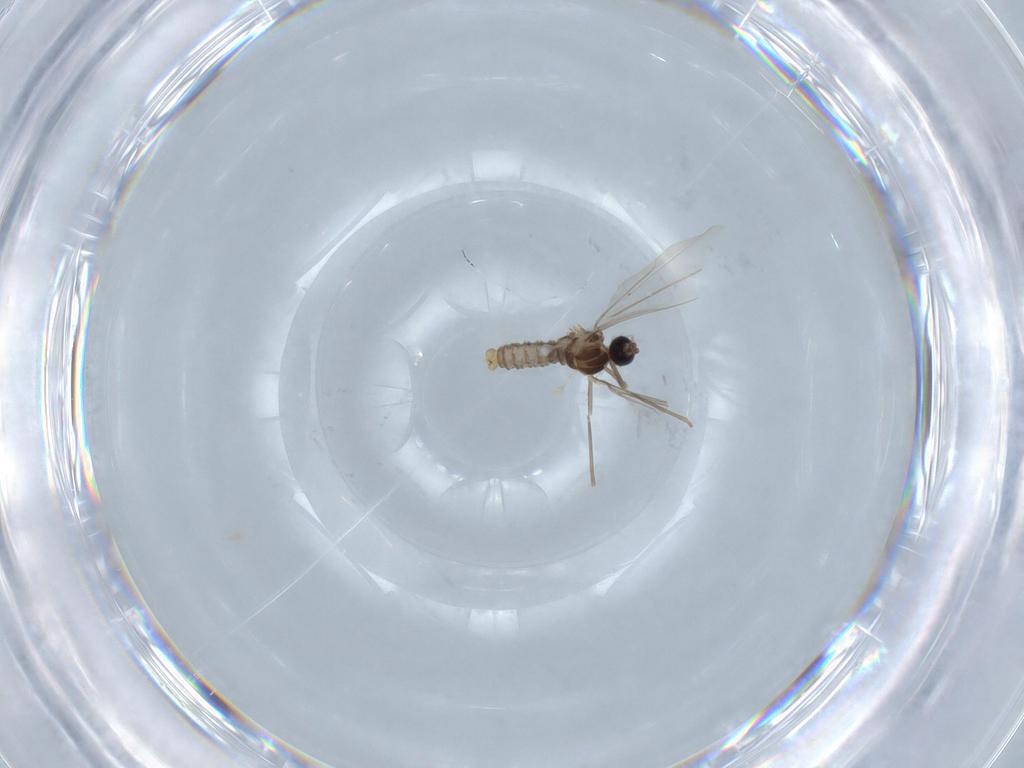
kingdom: Animalia
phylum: Arthropoda
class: Insecta
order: Diptera
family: Cecidomyiidae
